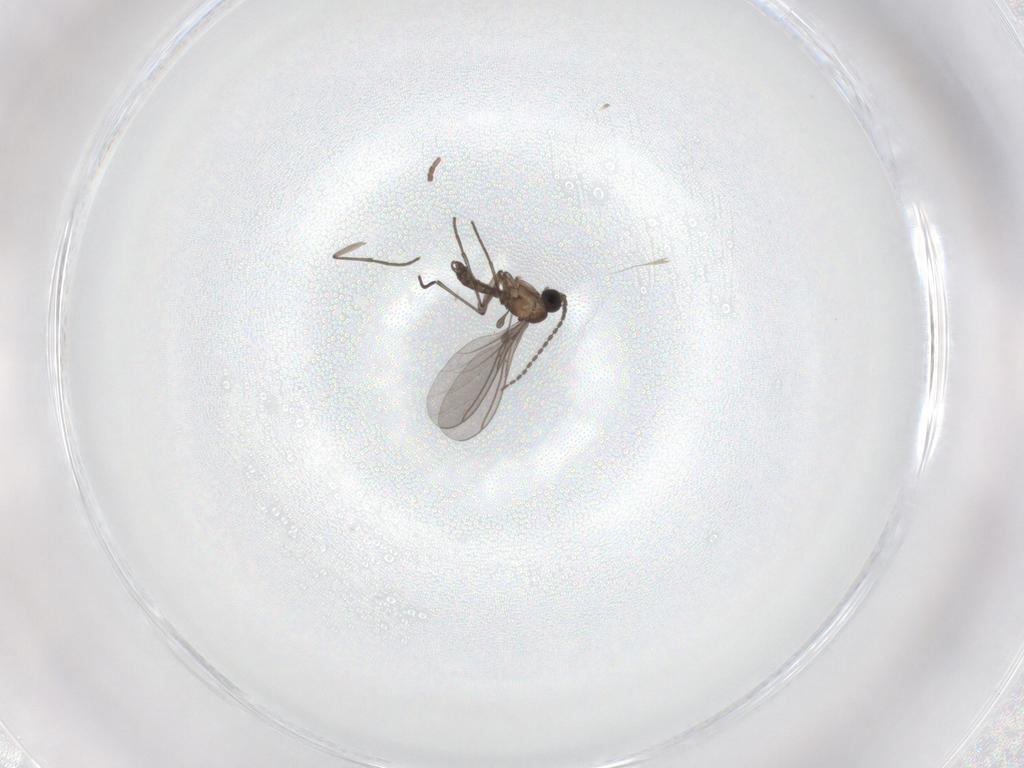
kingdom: Animalia
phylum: Arthropoda
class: Insecta
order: Diptera
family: Psychodidae
